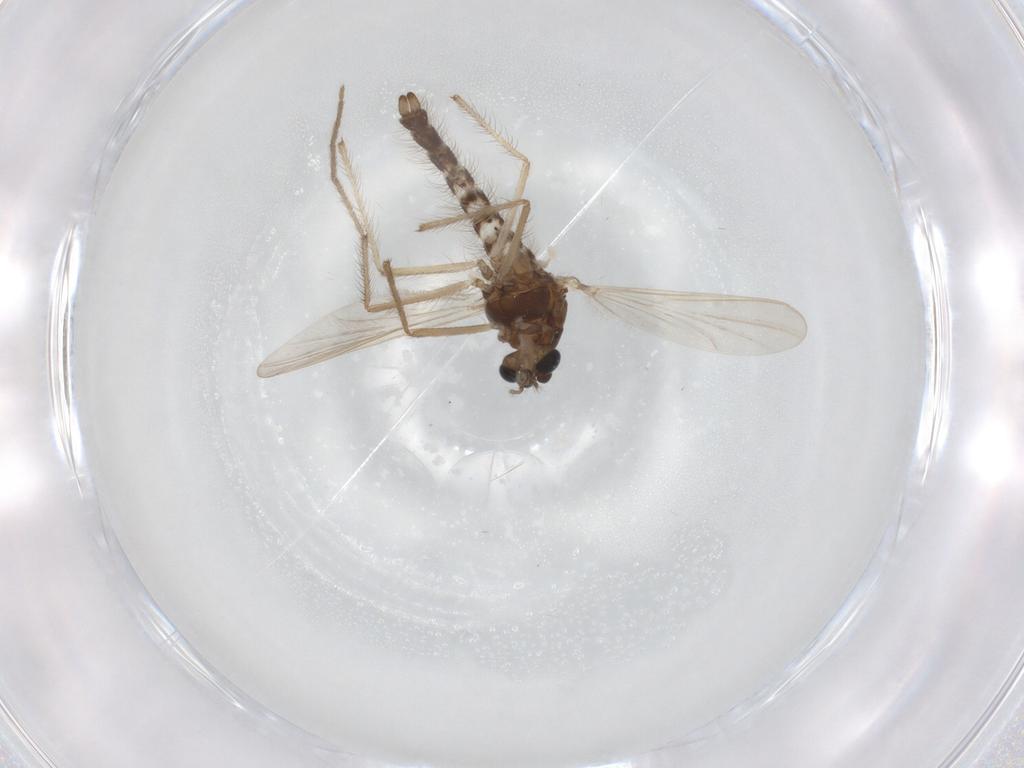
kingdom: Animalia
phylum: Arthropoda
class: Insecta
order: Diptera
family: Chironomidae
